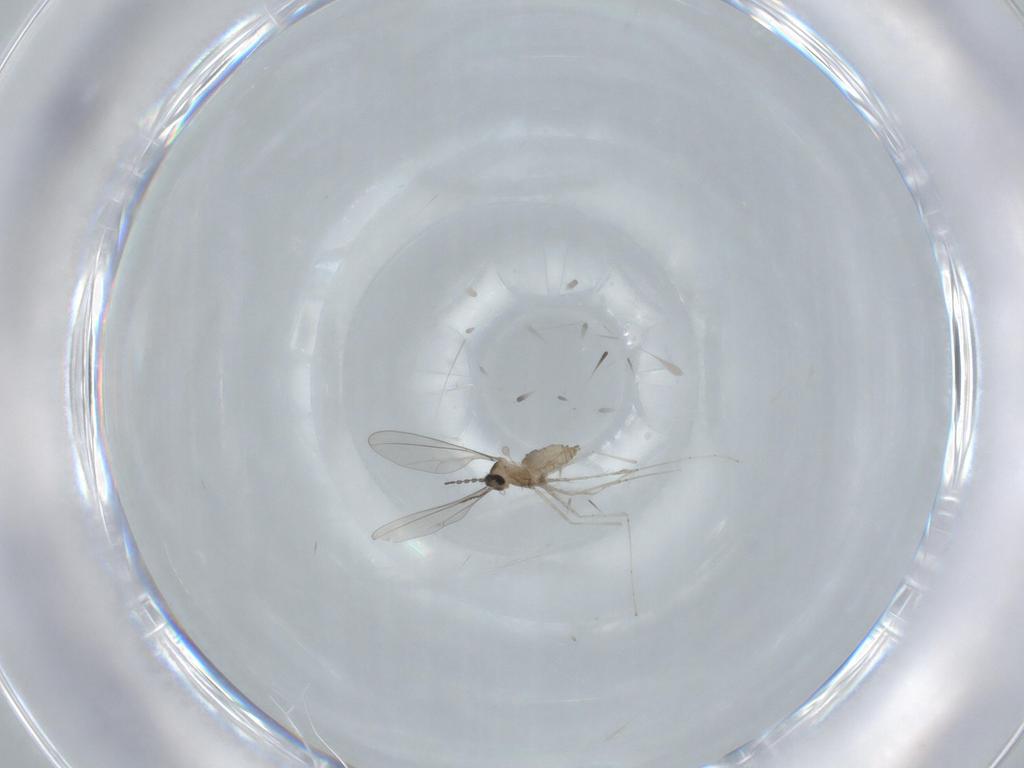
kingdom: Animalia
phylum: Arthropoda
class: Insecta
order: Diptera
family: Cecidomyiidae
